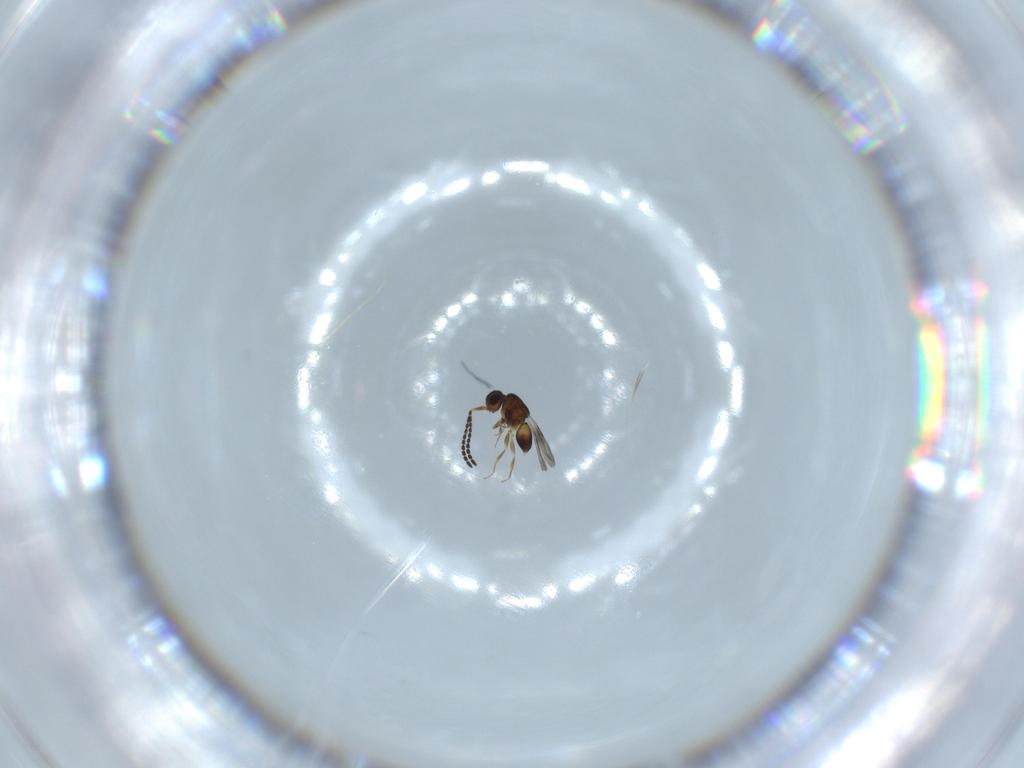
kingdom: Animalia
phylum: Arthropoda
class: Insecta
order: Hymenoptera
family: Ceraphronidae
